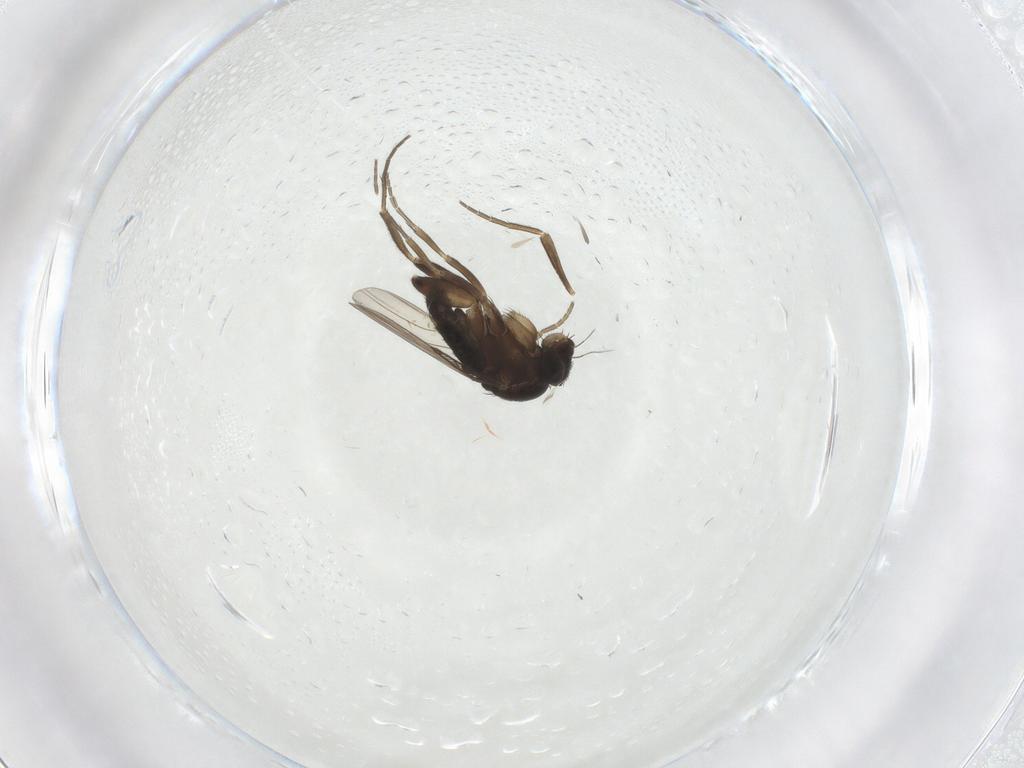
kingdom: Animalia
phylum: Arthropoda
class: Insecta
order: Diptera
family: Phoridae
